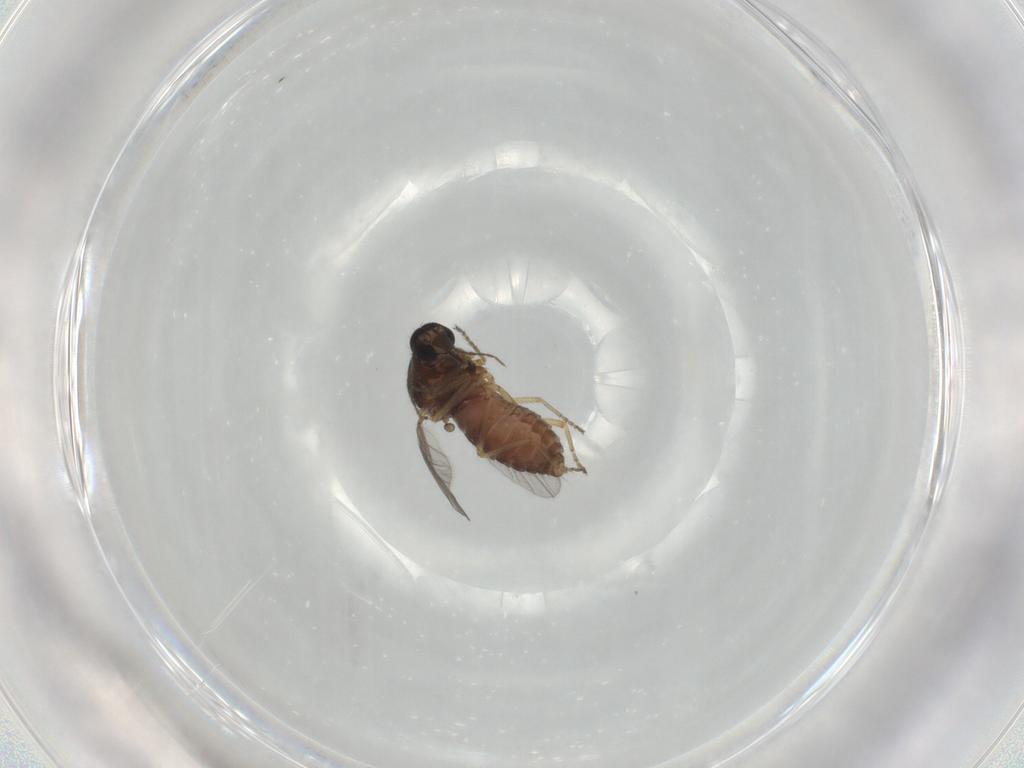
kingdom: Animalia
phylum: Arthropoda
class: Insecta
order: Diptera
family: Ceratopogonidae
